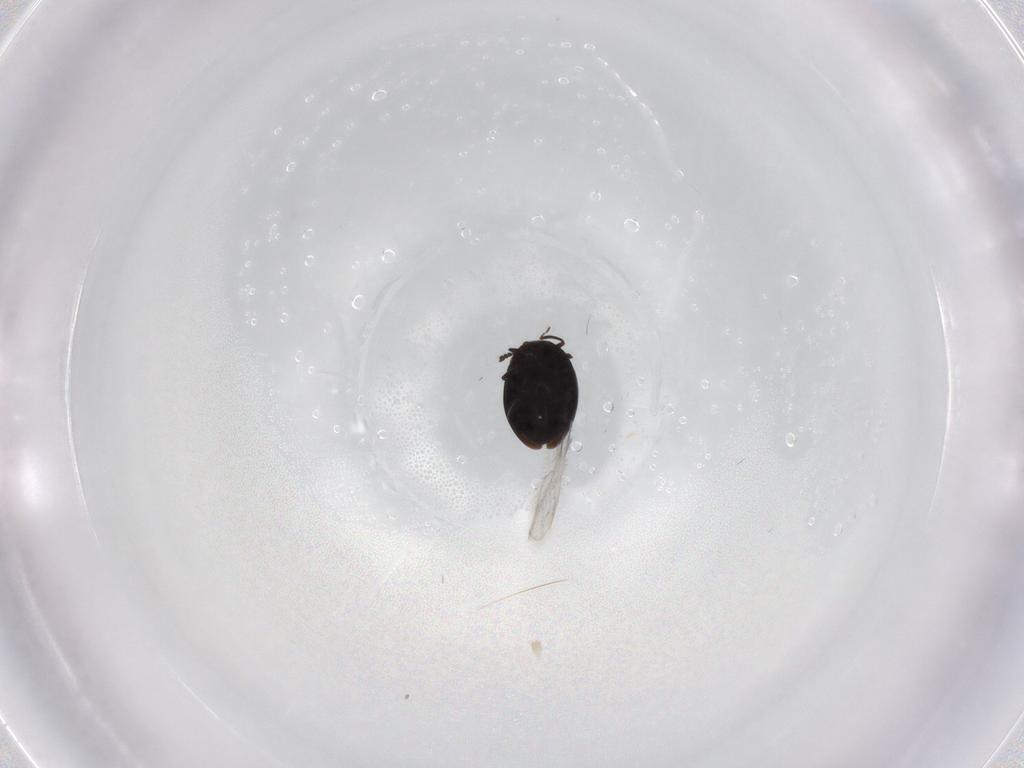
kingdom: Animalia
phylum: Arthropoda
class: Insecta
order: Coleoptera
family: Corylophidae
